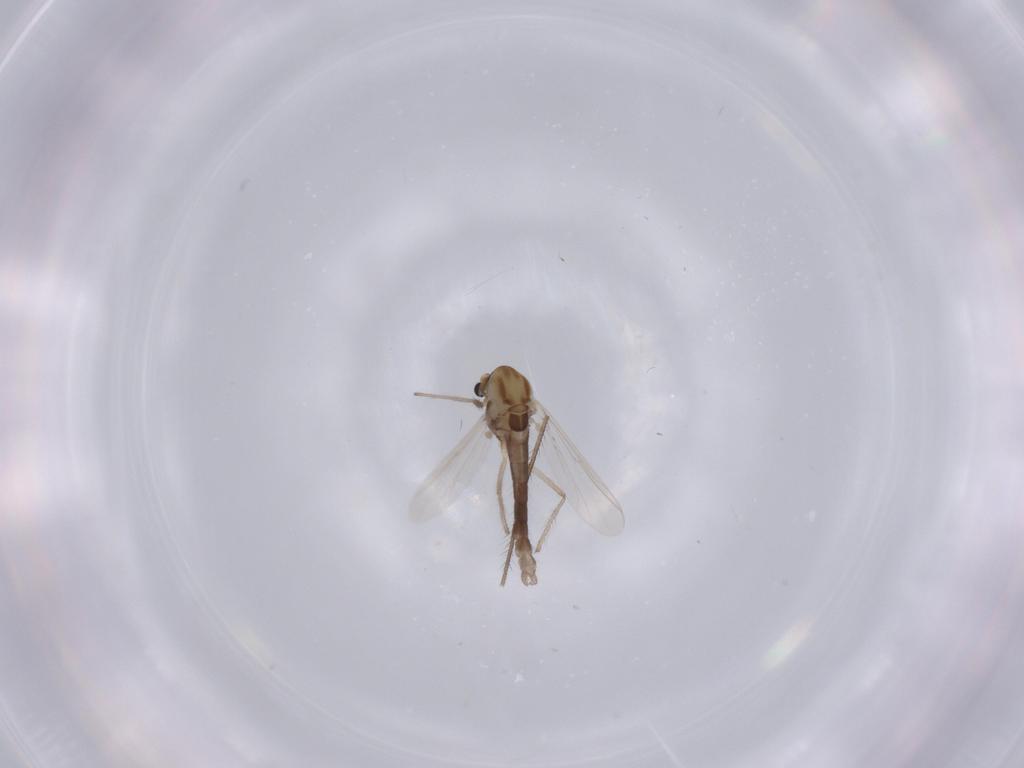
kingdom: Animalia
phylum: Arthropoda
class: Insecta
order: Diptera
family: Chironomidae
